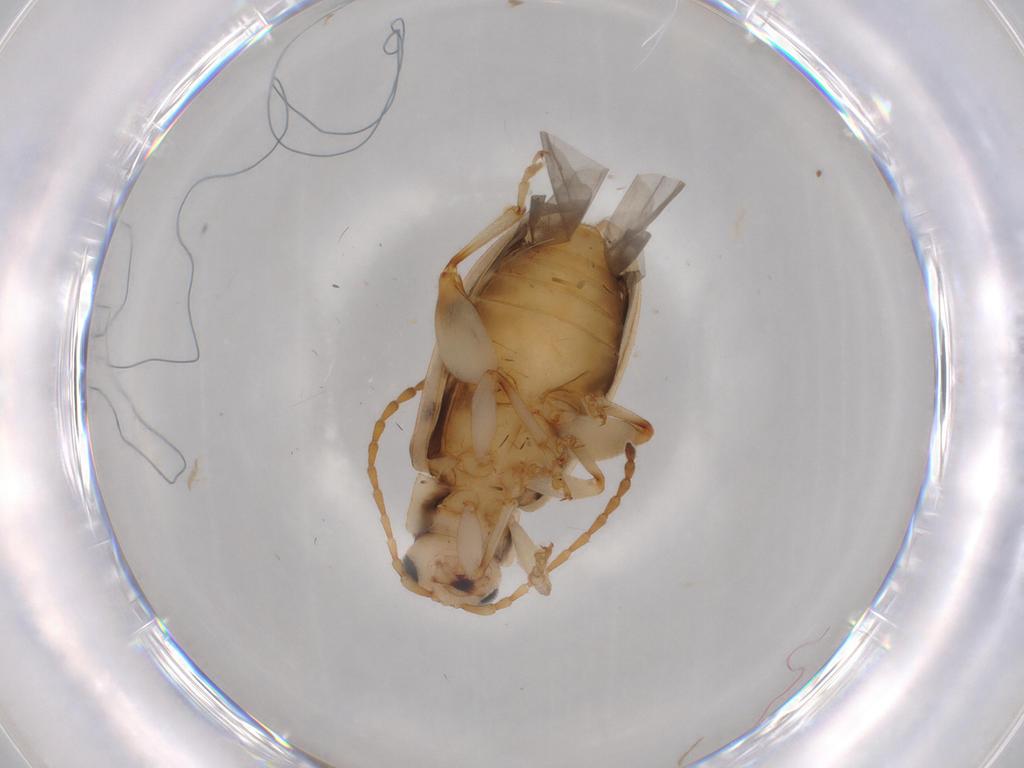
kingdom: Animalia
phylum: Arthropoda
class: Insecta
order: Coleoptera
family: Chrysomelidae
